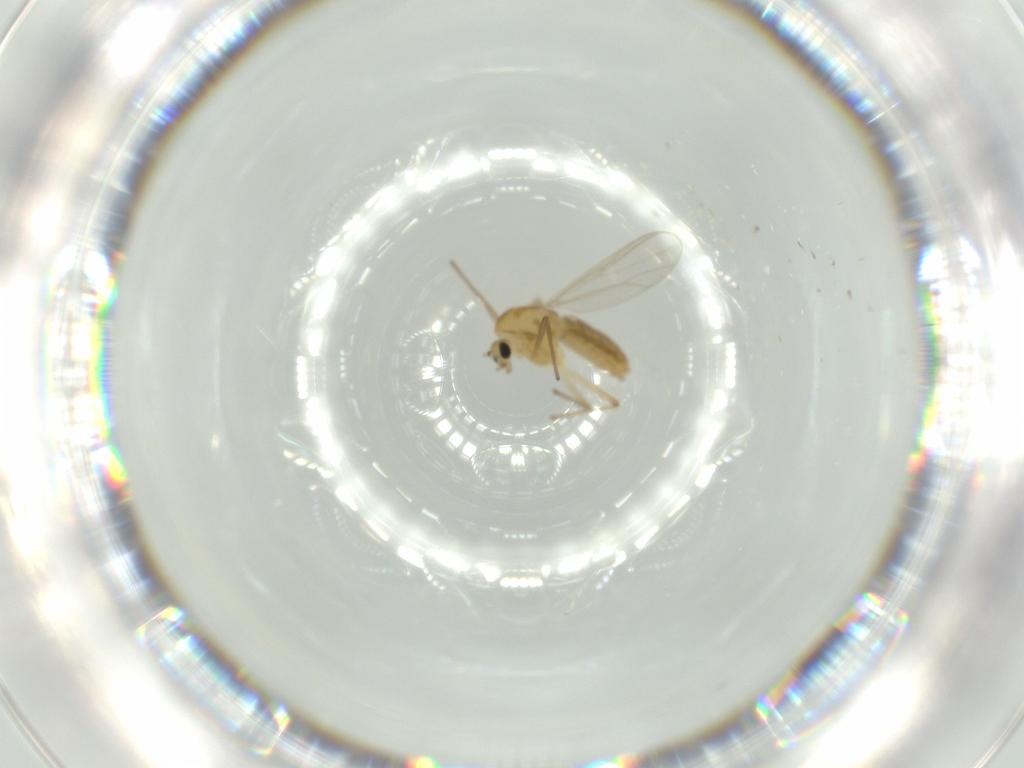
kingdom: Animalia
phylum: Arthropoda
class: Insecta
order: Diptera
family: Chironomidae
